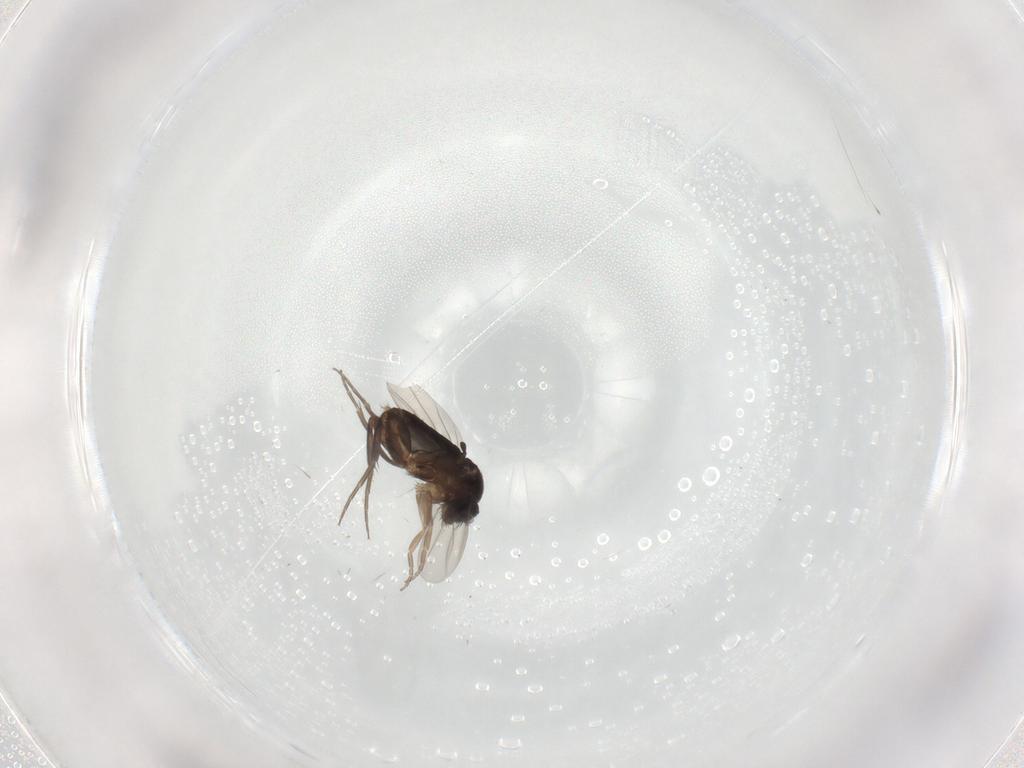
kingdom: Animalia
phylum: Arthropoda
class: Insecta
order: Diptera
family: Phoridae
